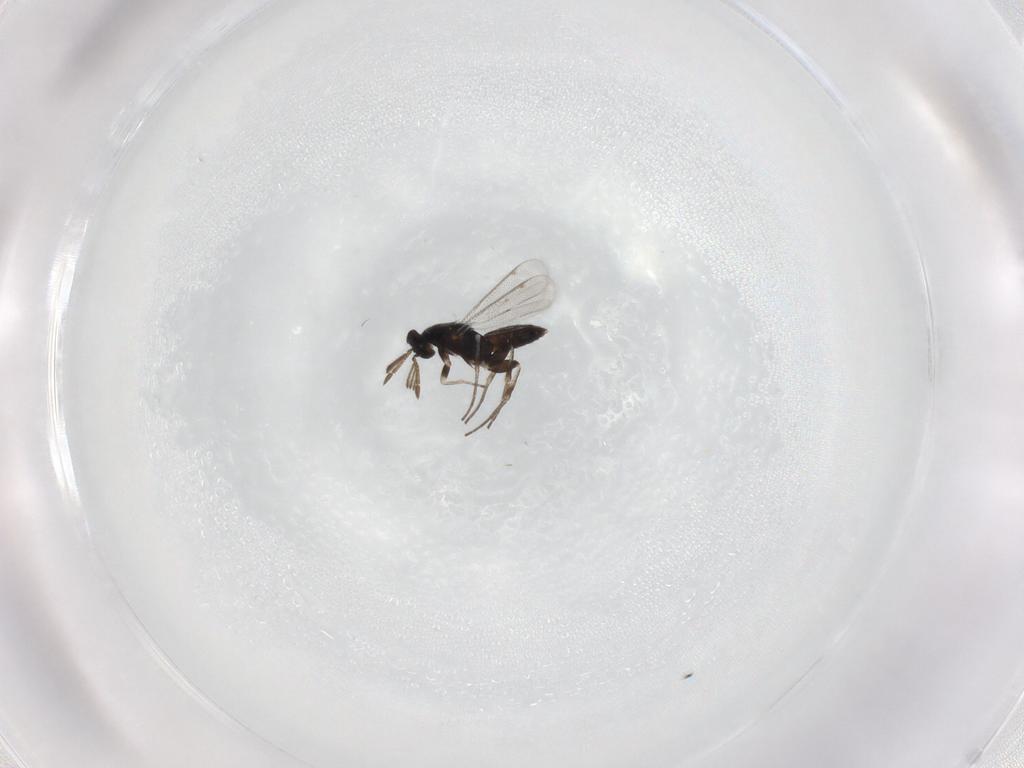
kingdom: Animalia
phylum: Arthropoda
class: Insecta
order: Hymenoptera
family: Eulophidae
